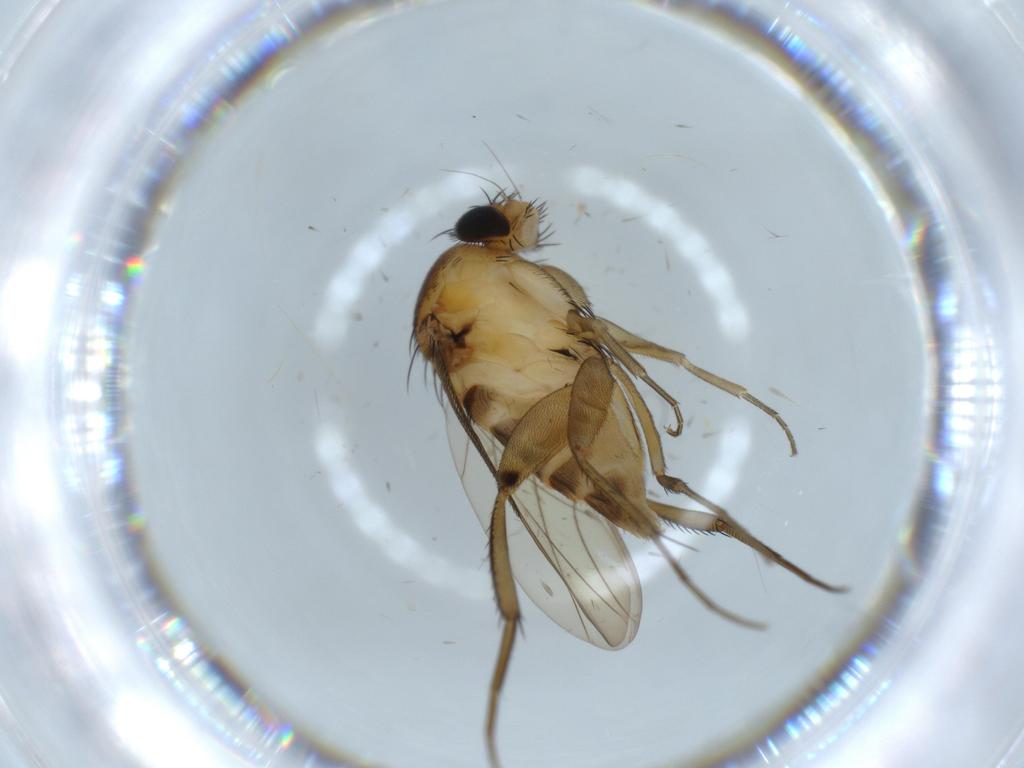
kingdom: Animalia
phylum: Arthropoda
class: Insecta
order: Diptera
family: Phoridae
